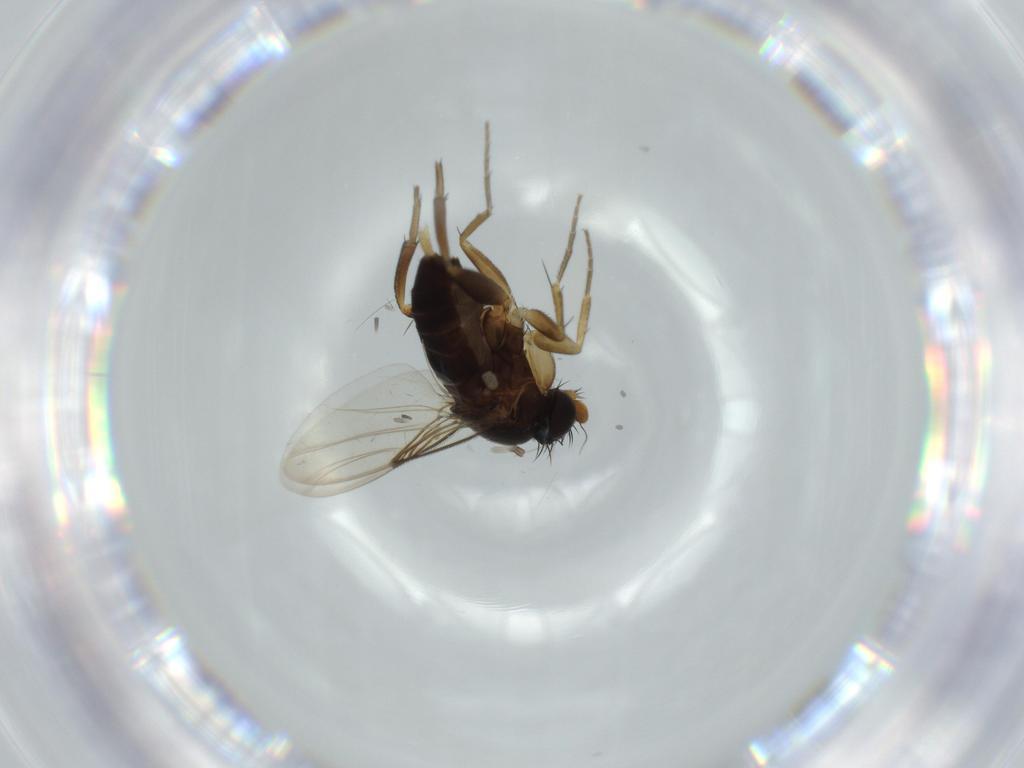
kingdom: Animalia
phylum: Arthropoda
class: Insecta
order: Diptera
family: Phoridae
